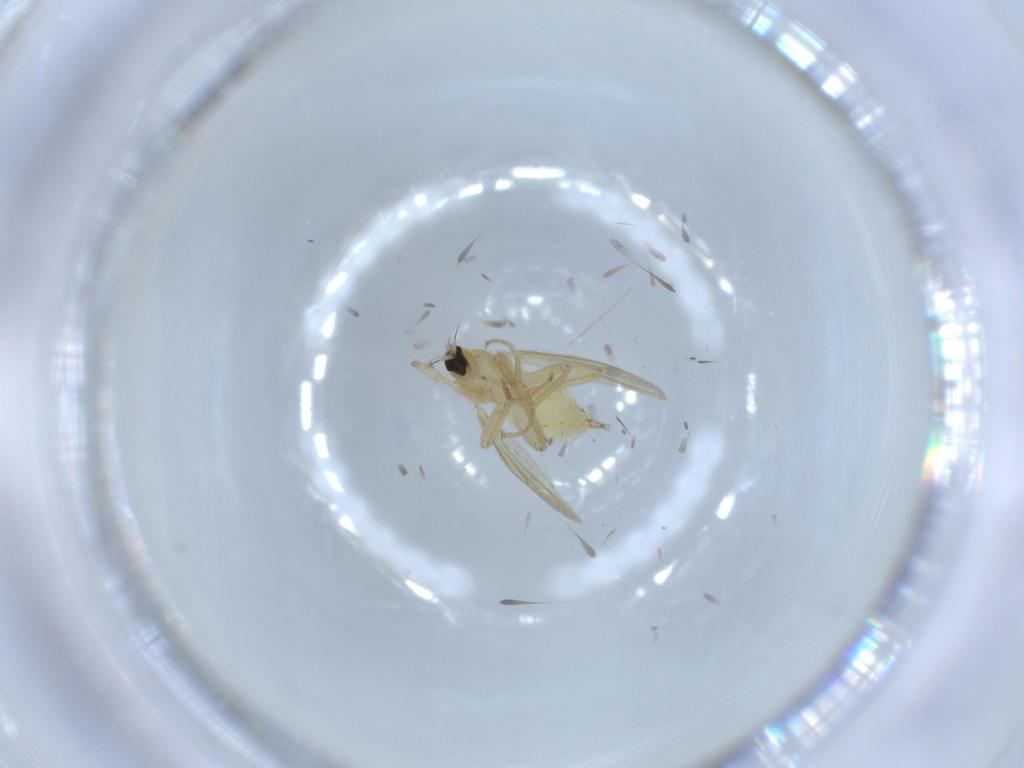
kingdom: Animalia
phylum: Arthropoda
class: Insecta
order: Diptera
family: Hybotidae
